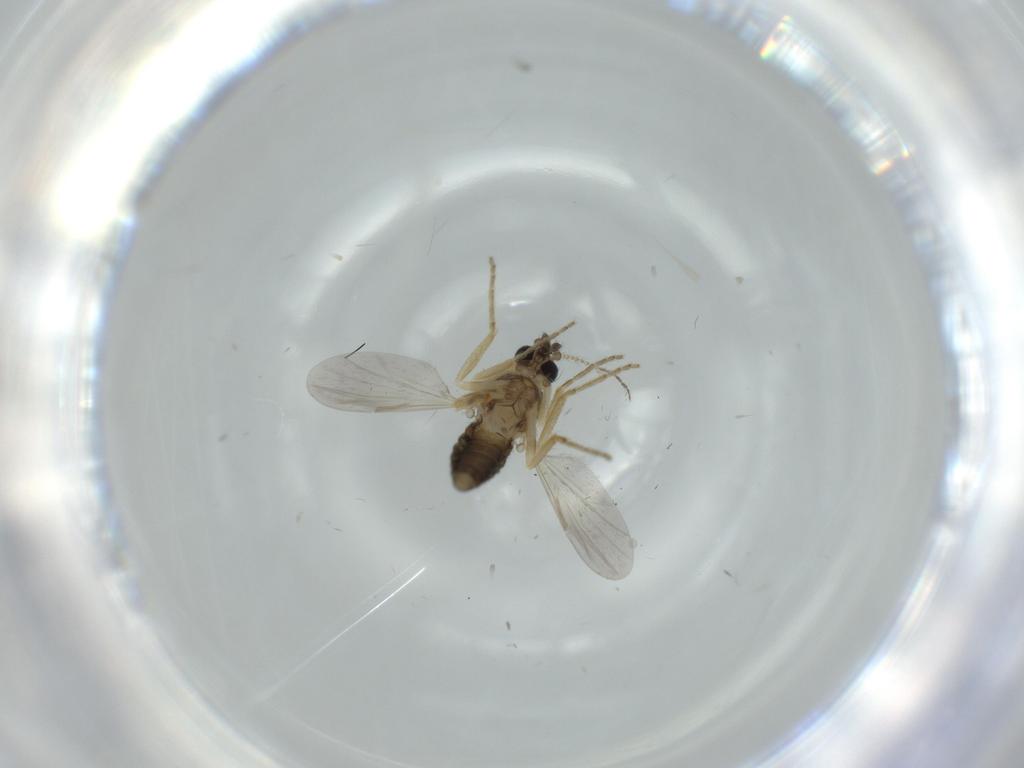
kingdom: Animalia
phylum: Arthropoda
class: Insecta
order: Diptera
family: Ceratopogonidae
